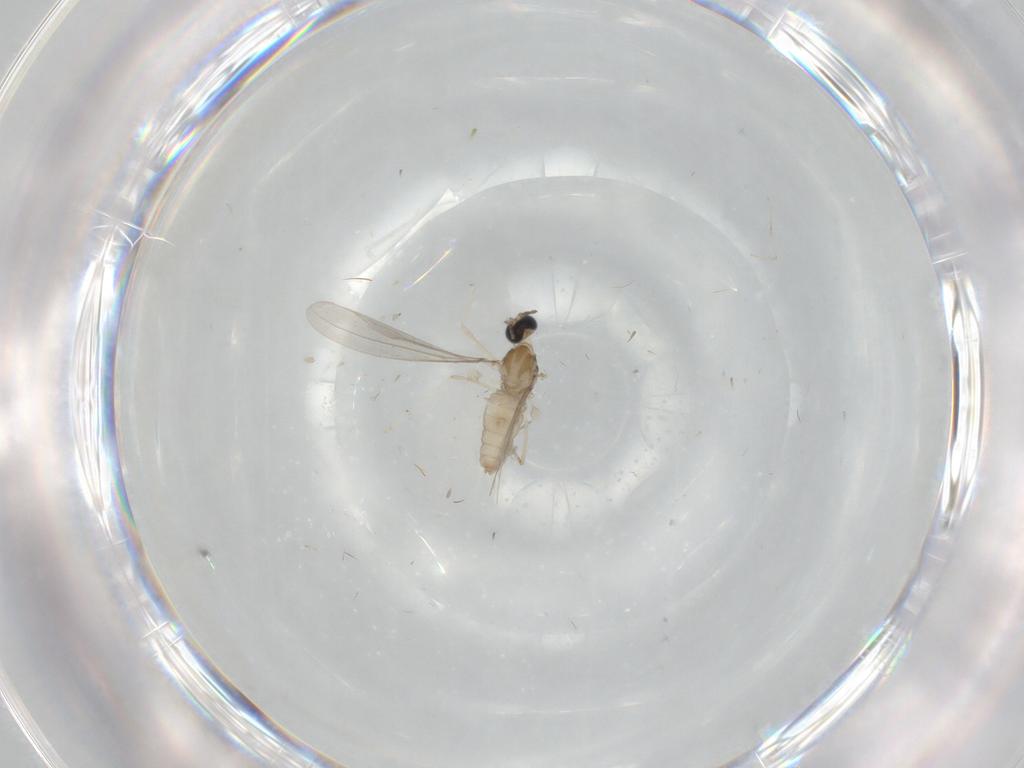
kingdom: Animalia
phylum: Arthropoda
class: Insecta
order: Diptera
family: Cecidomyiidae
